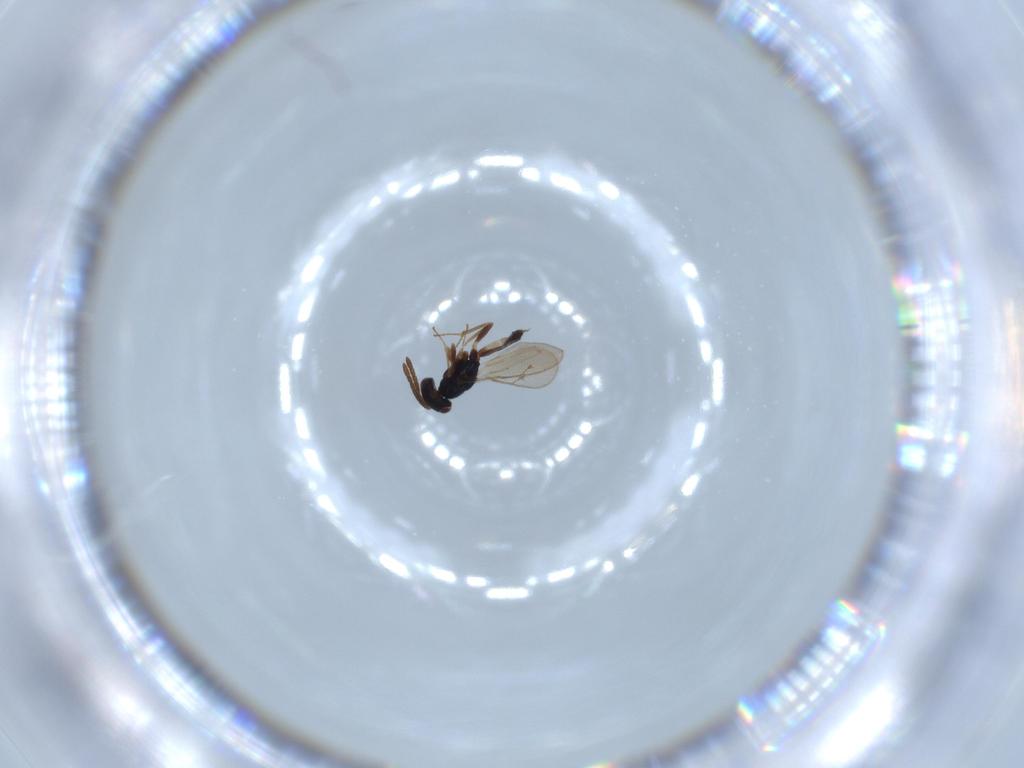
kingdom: Animalia
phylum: Arthropoda
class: Insecta
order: Hymenoptera
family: Pteromalidae
